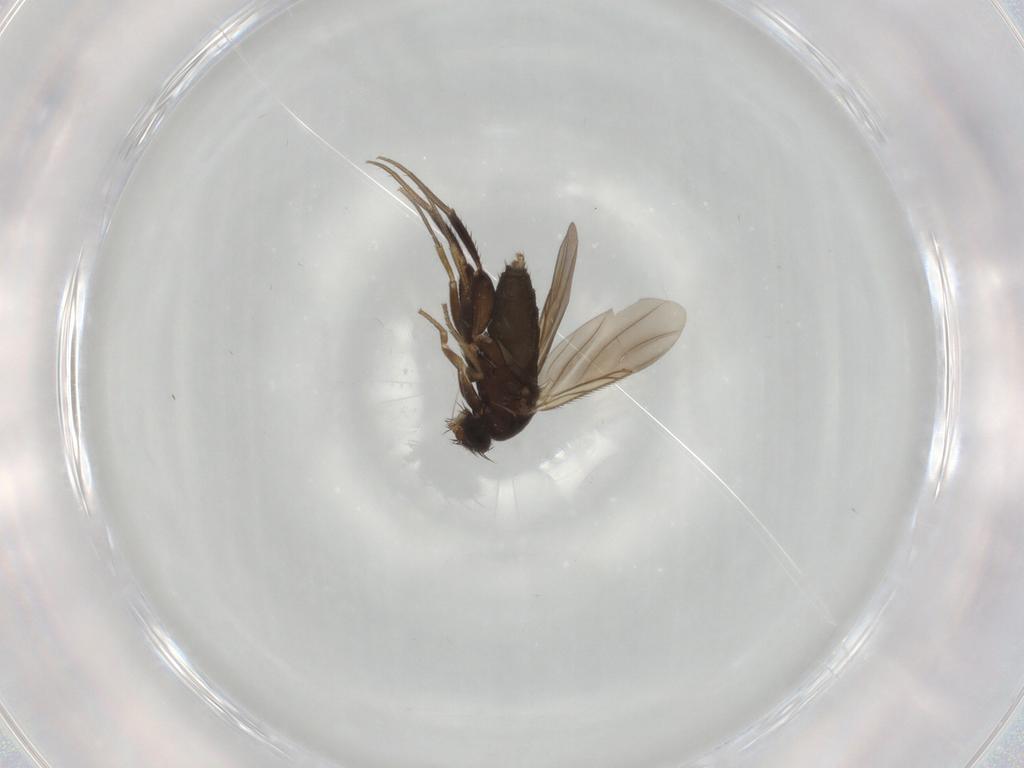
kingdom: Animalia
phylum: Arthropoda
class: Insecta
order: Diptera
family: Phoridae
